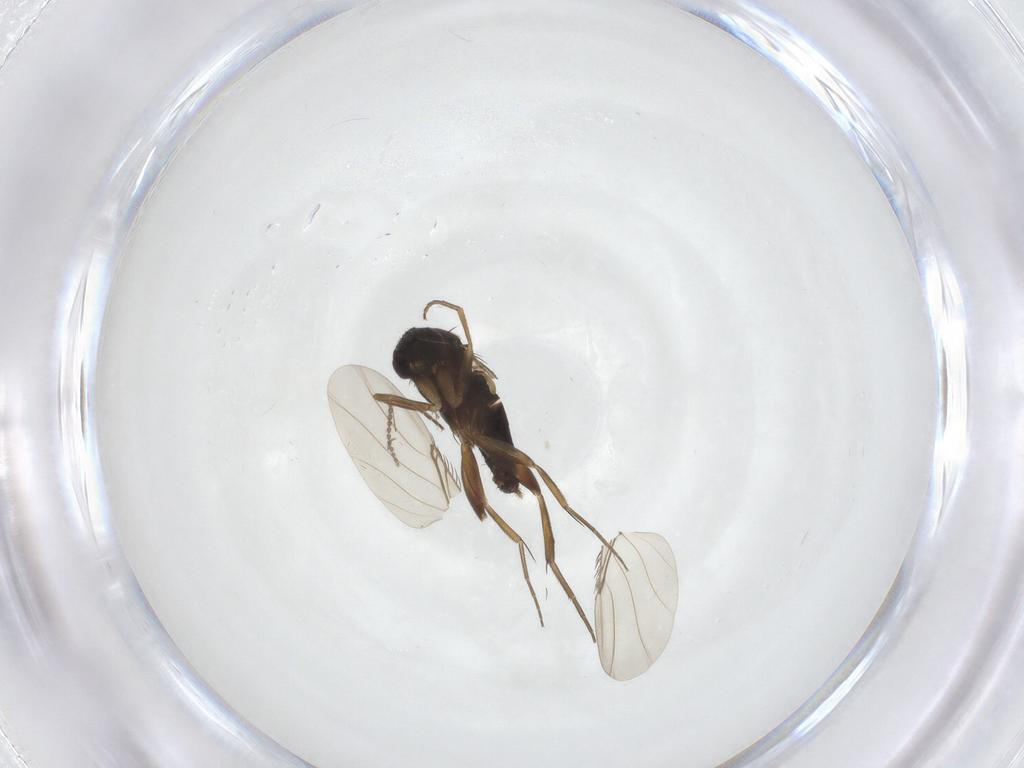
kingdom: Animalia
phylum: Arthropoda
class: Insecta
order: Diptera
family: Phoridae
